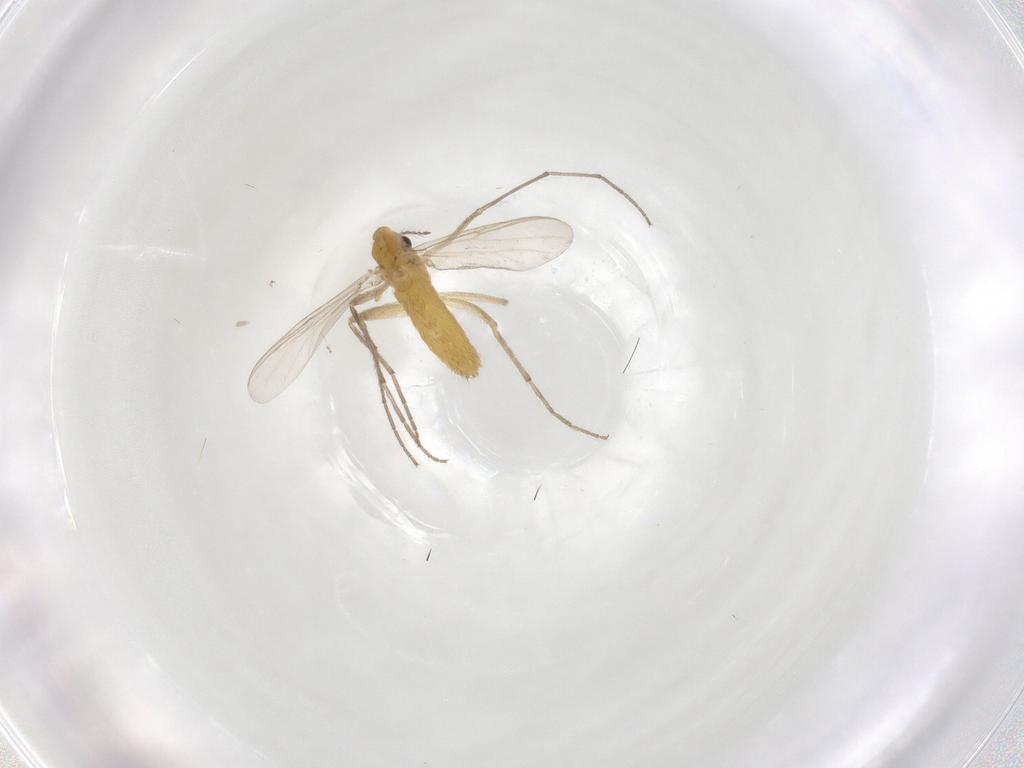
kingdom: Animalia
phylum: Arthropoda
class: Insecta
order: Diptera
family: Chironomidae
